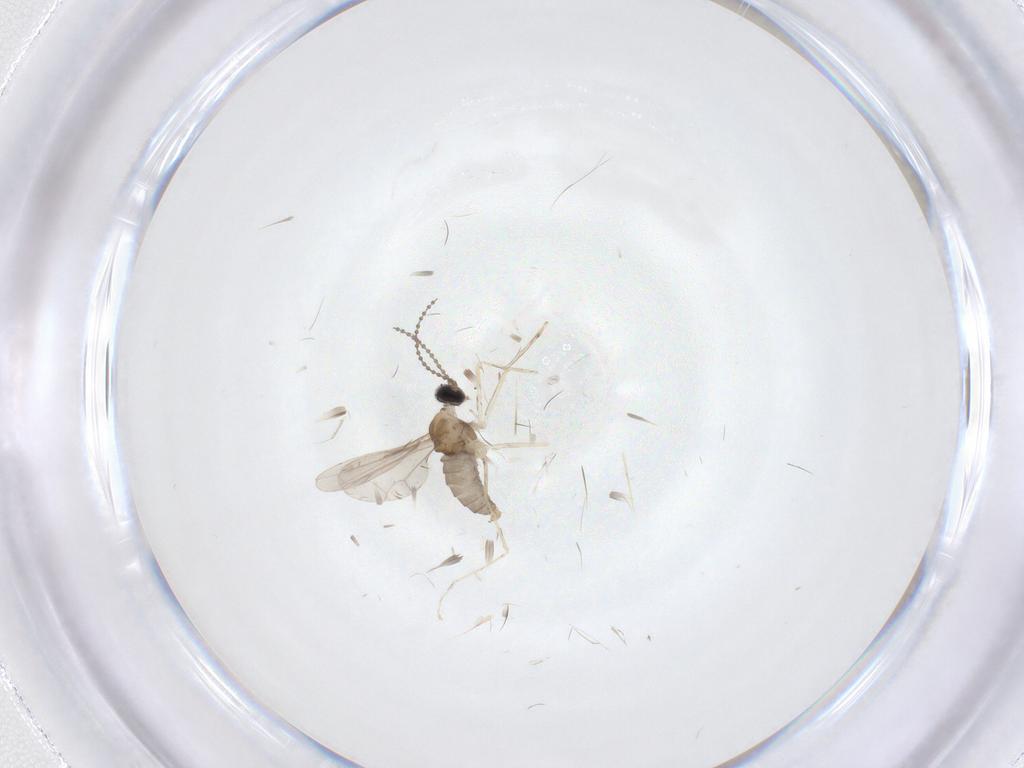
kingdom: Animalia
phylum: Arthropoda
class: Insecta
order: Diptera
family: Cecidomyiidae
